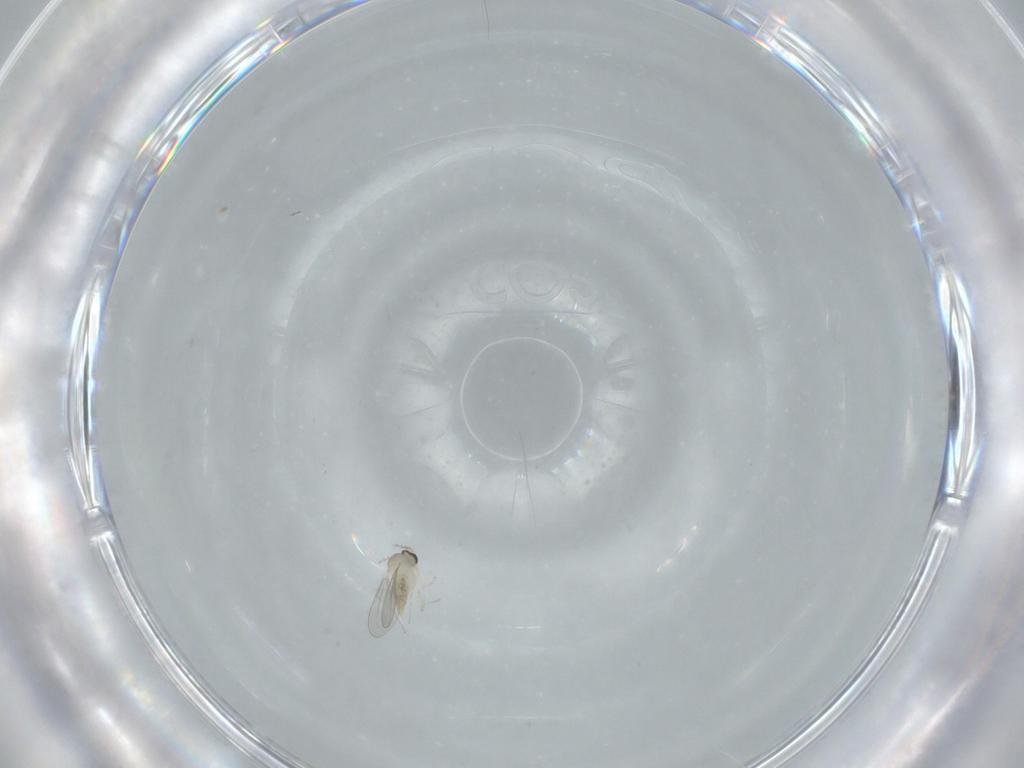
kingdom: Animalia
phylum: Arthropoda
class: Insecta
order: Diptera
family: Cecidomyiidae
